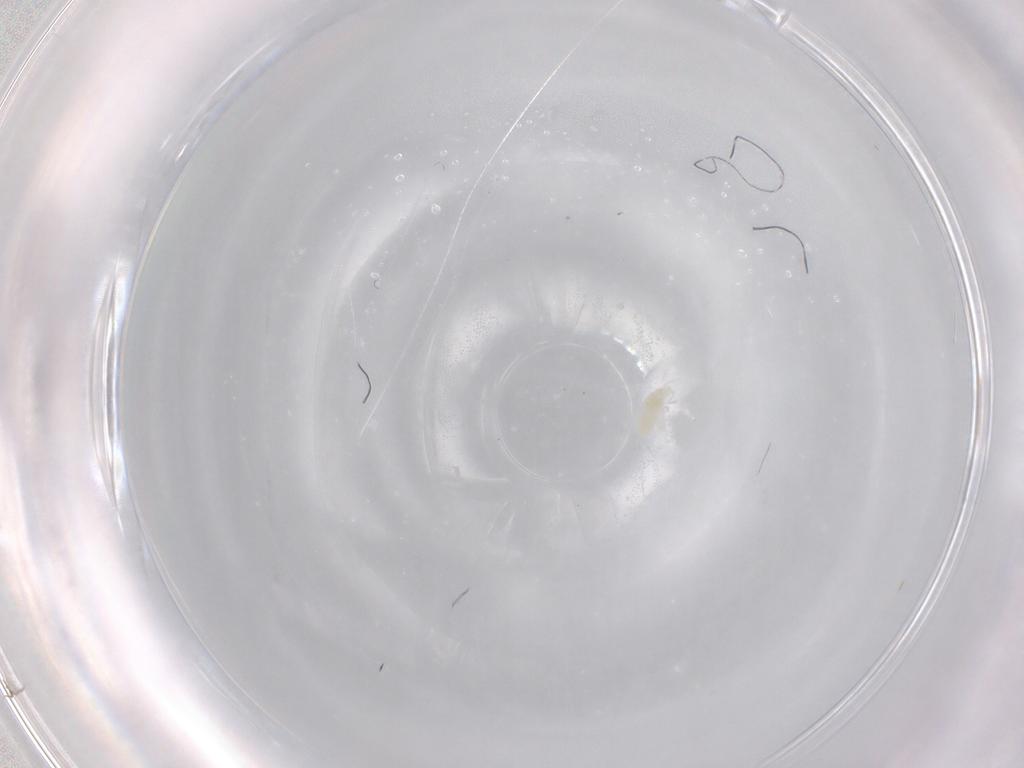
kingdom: Animalia
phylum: Arthropoda
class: Arachnida
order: Trombidiformes
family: Eupodidae
